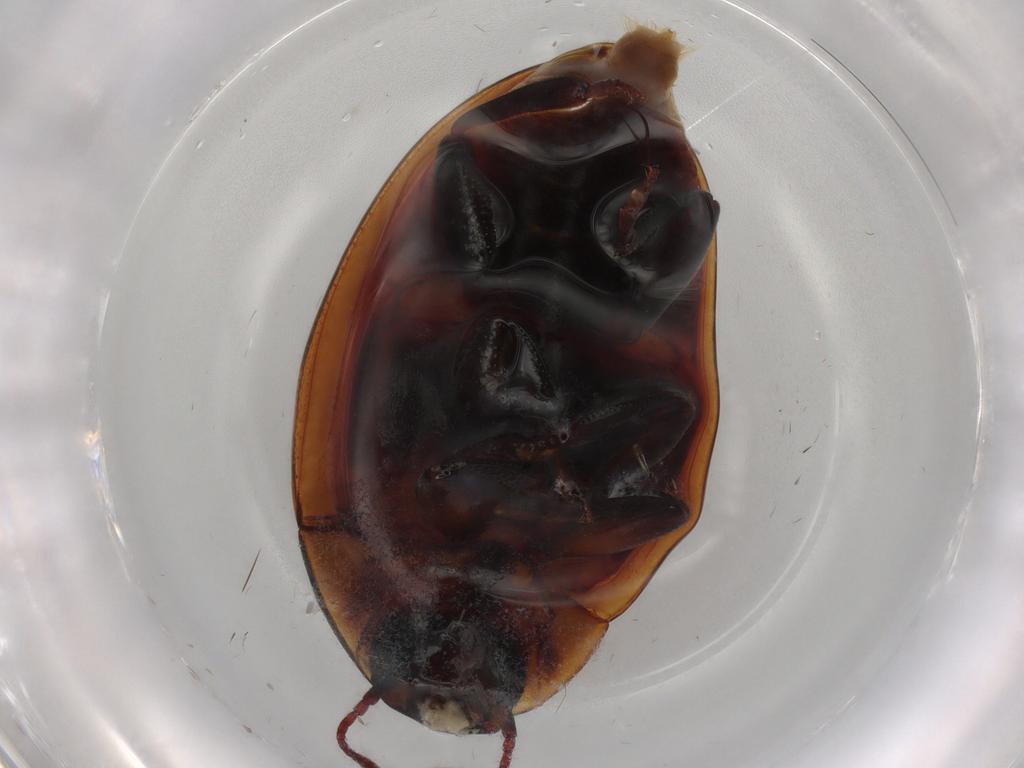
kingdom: Animalia
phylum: Arthropoda
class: Insecta
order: Coleoptera
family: Zopheridae
